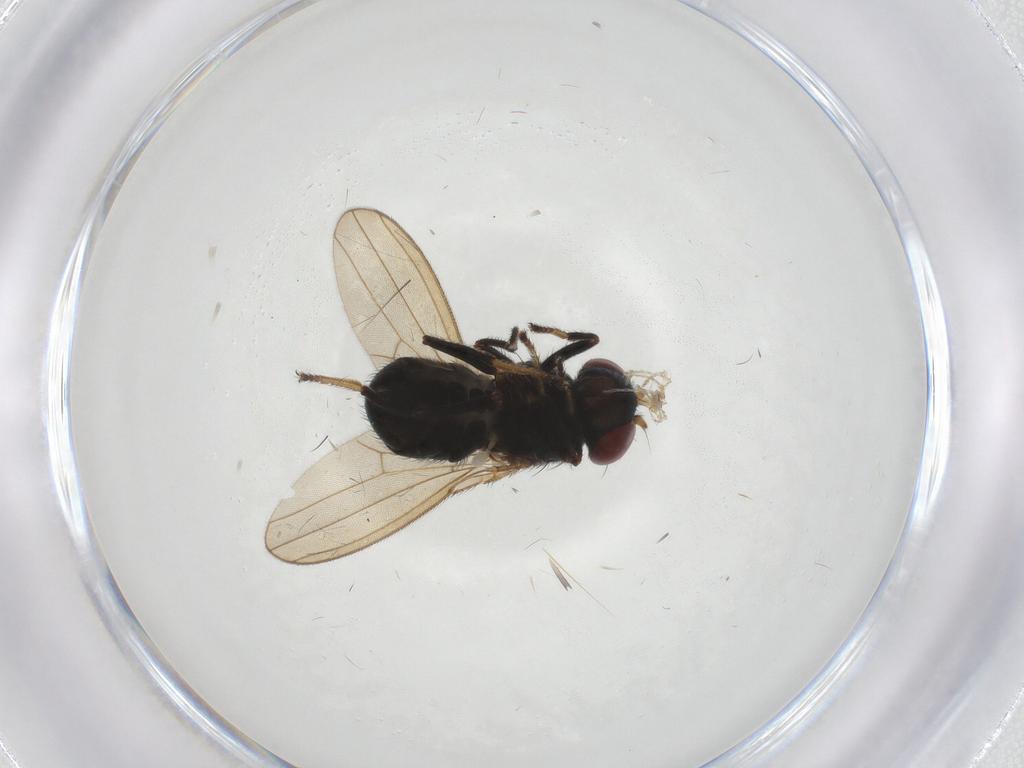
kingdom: Animalia
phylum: Arthropoda
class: Insecta
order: Diptera
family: Ephydridae
